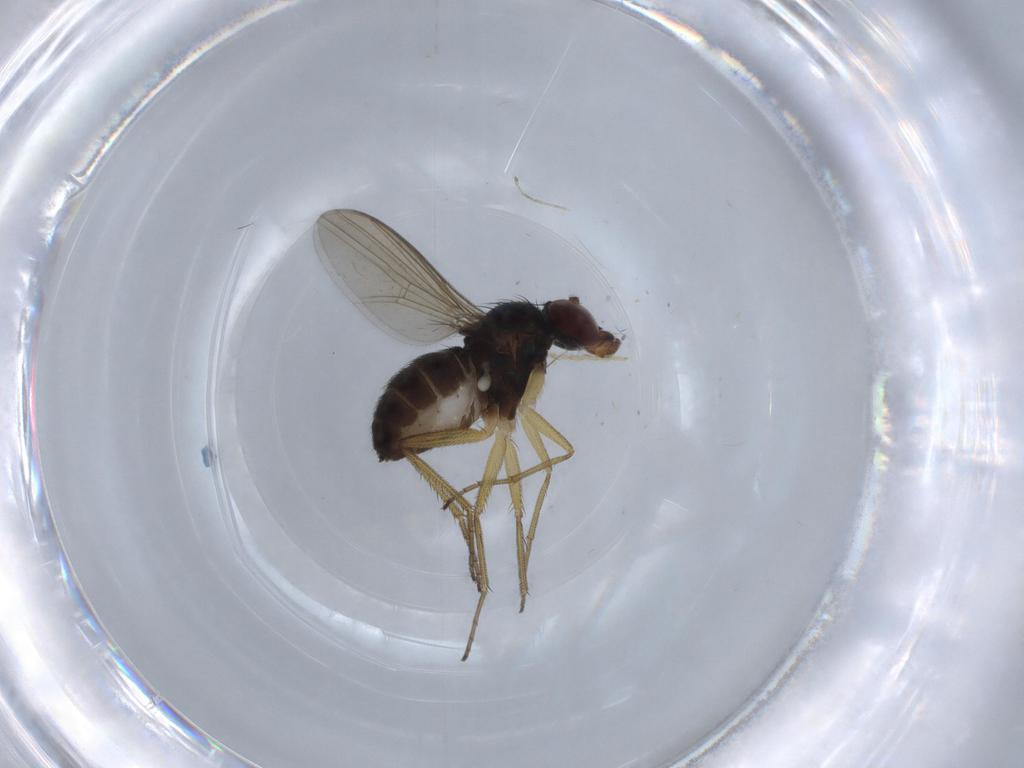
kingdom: Animalia
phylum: Arthropoda
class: Insecta
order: Diptera
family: Dolichopodidae
